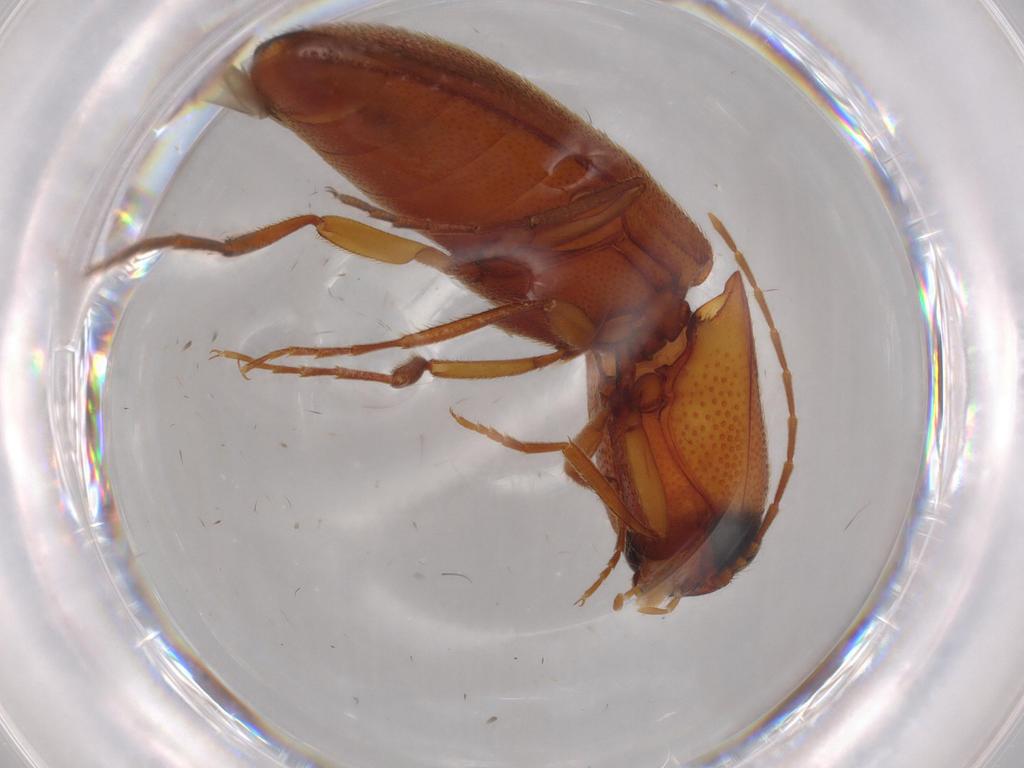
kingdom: Animalia
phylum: Arthropoda
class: Insecta
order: Coleoptera
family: Elateridae
